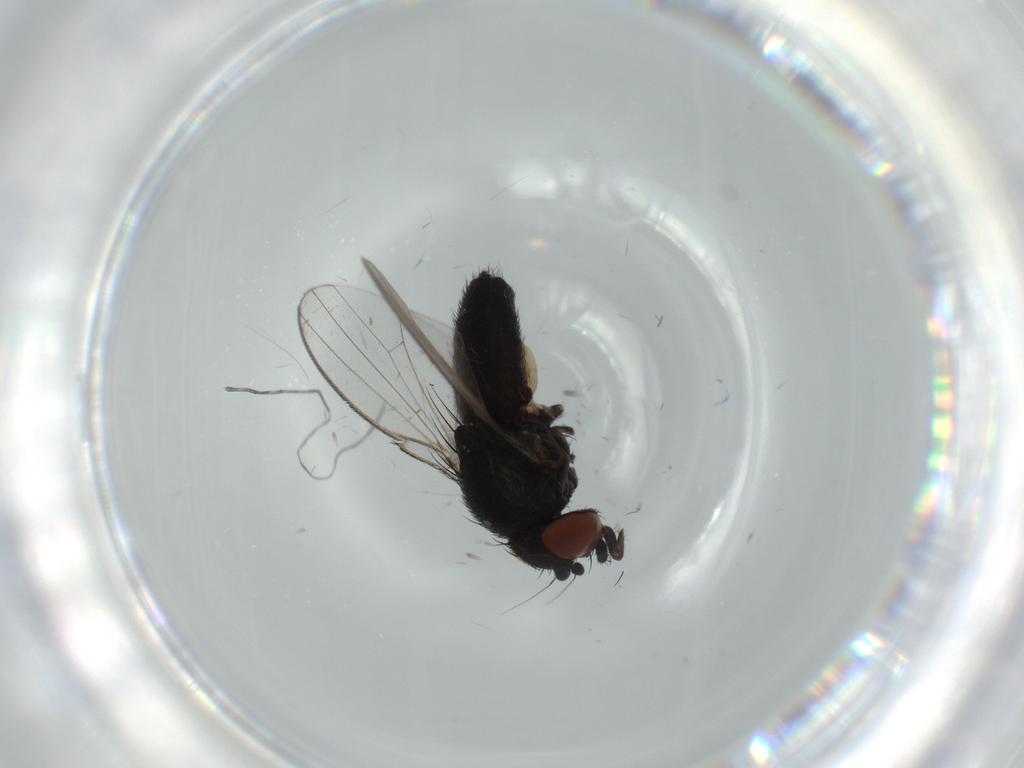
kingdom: Animalia
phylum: Arthropoda
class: Insecta
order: Diptera
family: Milichiidae
